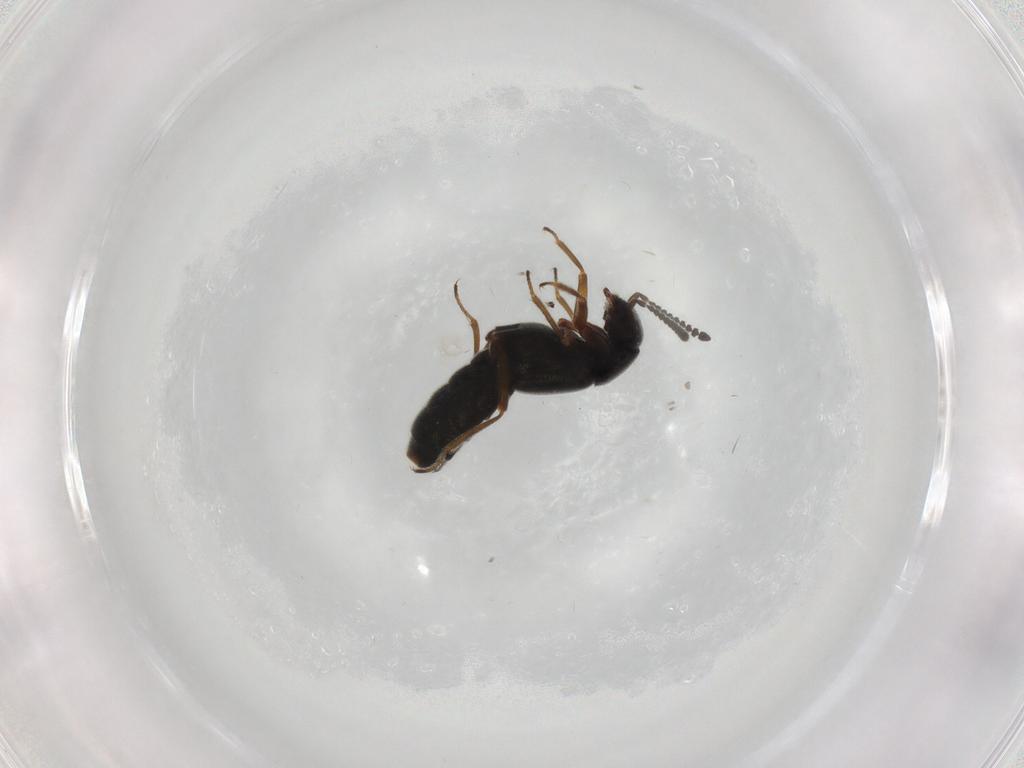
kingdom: Animalia
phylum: Arthropoda
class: Insecta
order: Coleoptera
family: Staphylinidae
